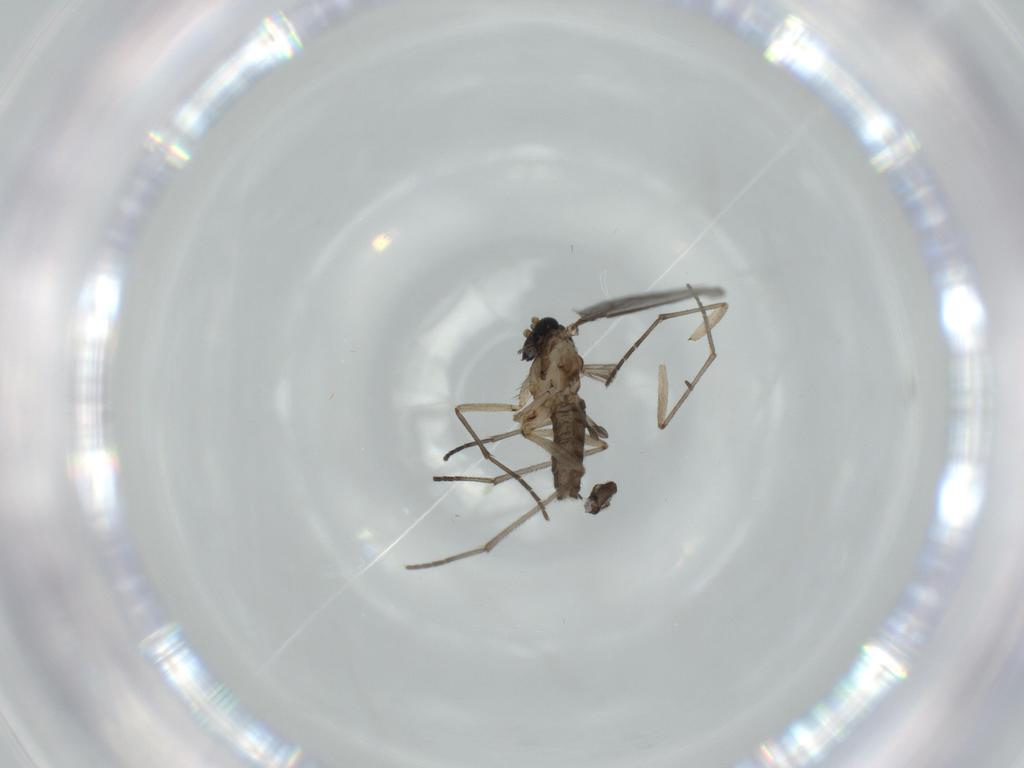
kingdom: Animalia
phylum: Arthropoda
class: Insecta
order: Diptera
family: Sciaridae
